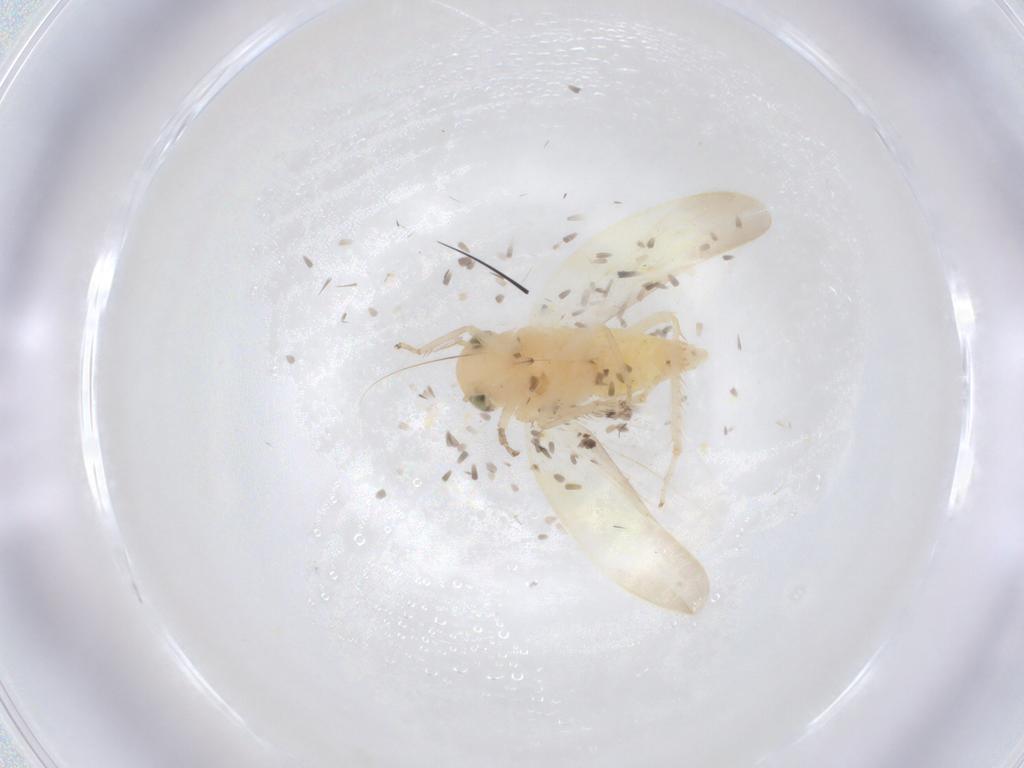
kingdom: Animalia
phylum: Arthropoda
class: Insecta
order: Hemiptera
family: Cicadellidae
